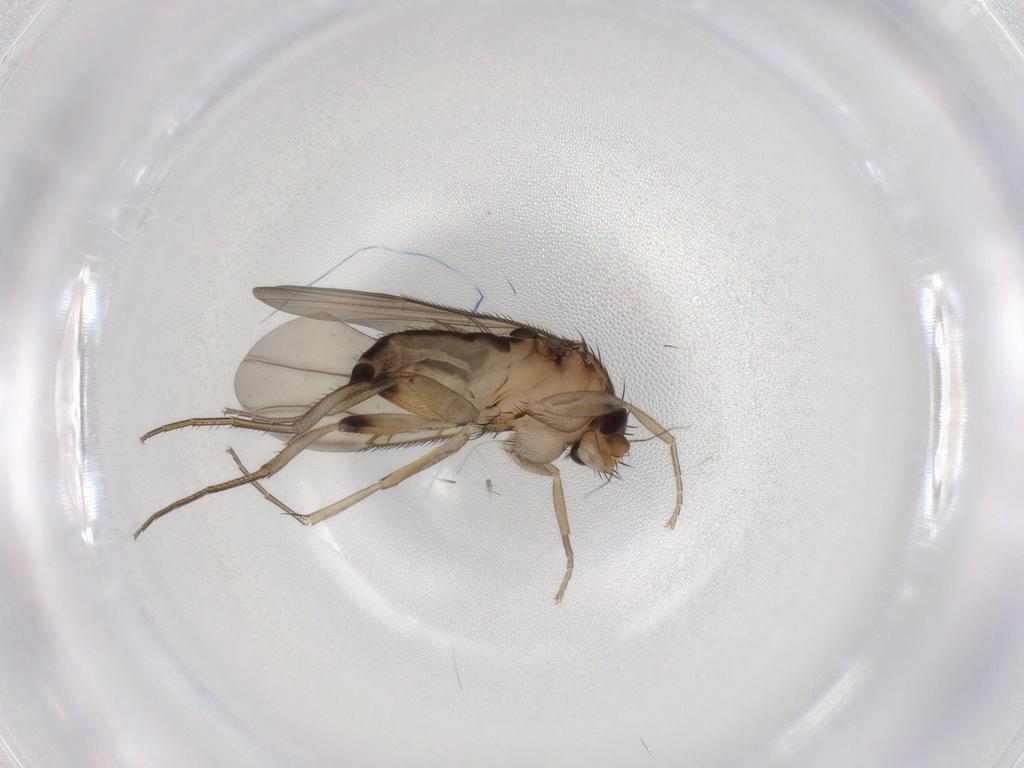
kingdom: Animalia
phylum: Arthropoda
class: Insecta
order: Diptera
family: Phoridae
